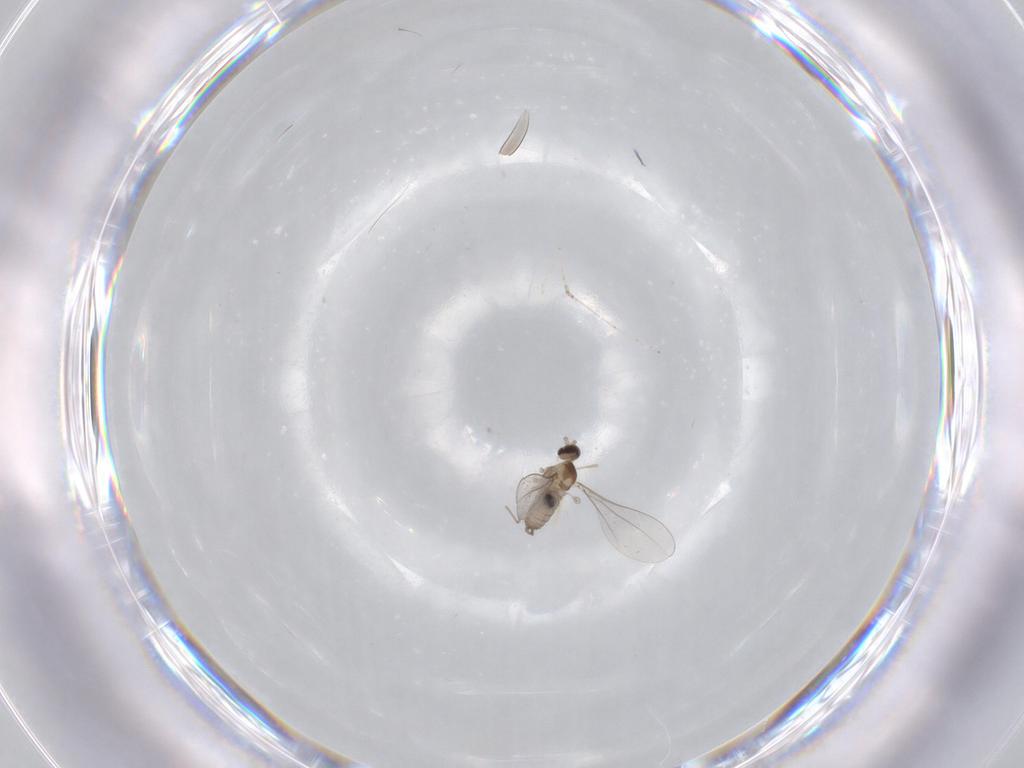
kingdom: Animalia
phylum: Arthropoda
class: Insecta
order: Diptera
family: Cecidomyiidae
